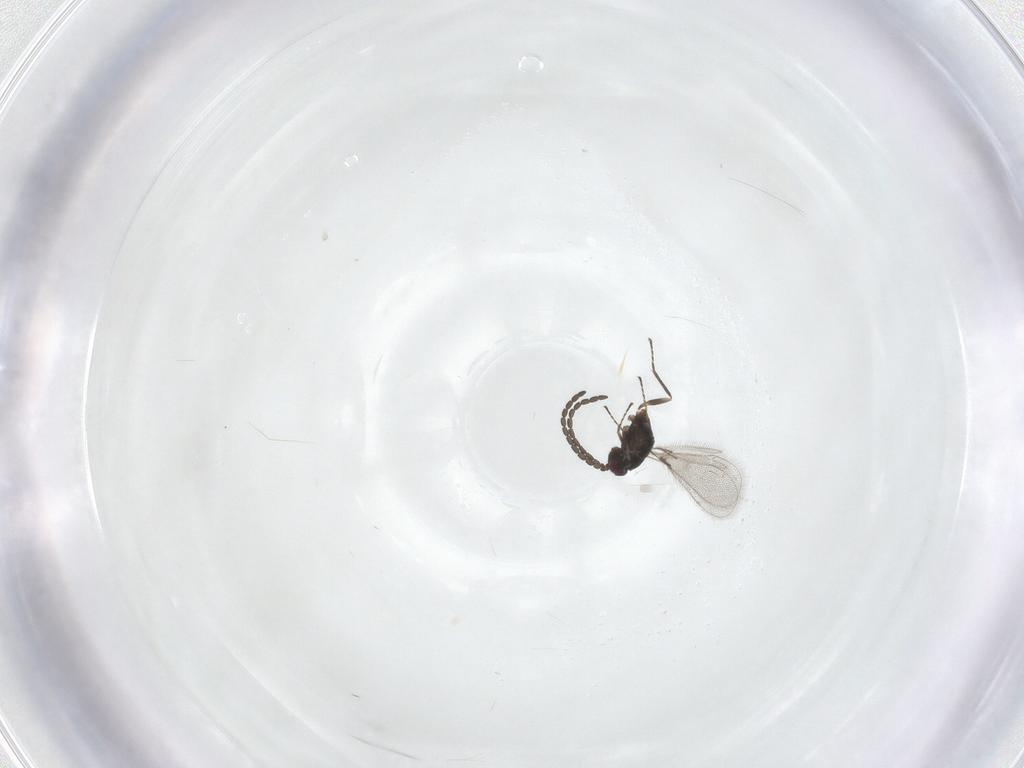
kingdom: Animalia
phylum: Arthropoda
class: Insecta
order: Hymenoptera
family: Mymaridae
